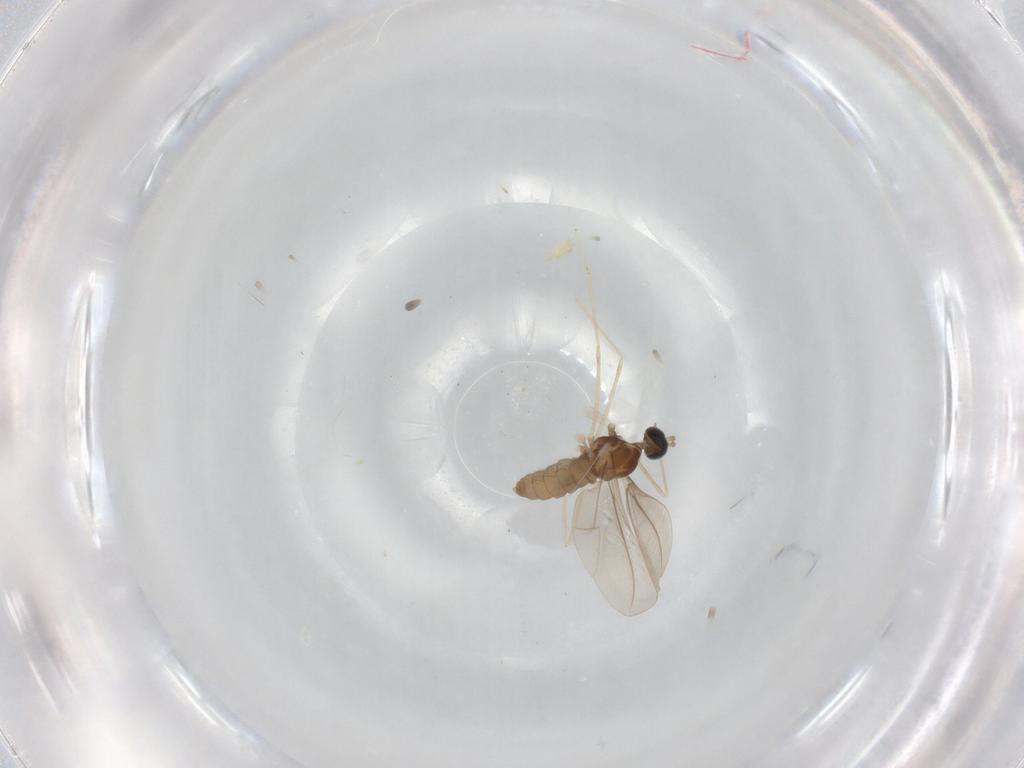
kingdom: Animalia
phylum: Arthropoda
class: Insecta
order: Diptera
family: Cecidomyiidae
